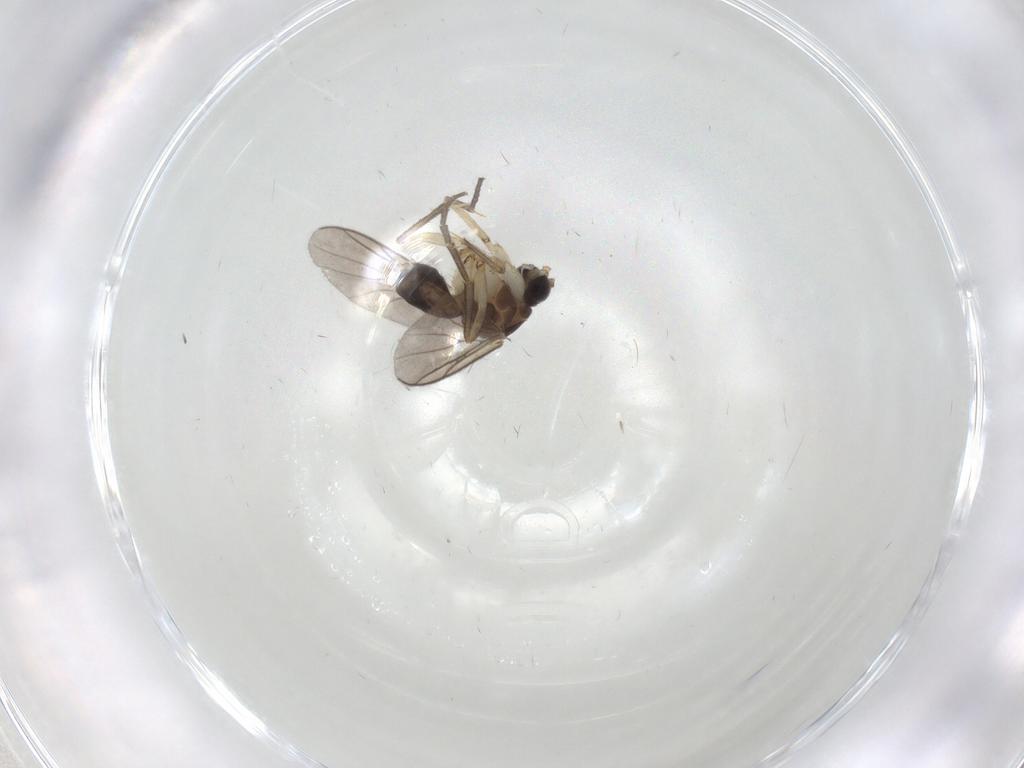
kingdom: Animalia
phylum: Arthropoda
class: Insecta
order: Diptera
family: Mycetophilidae
